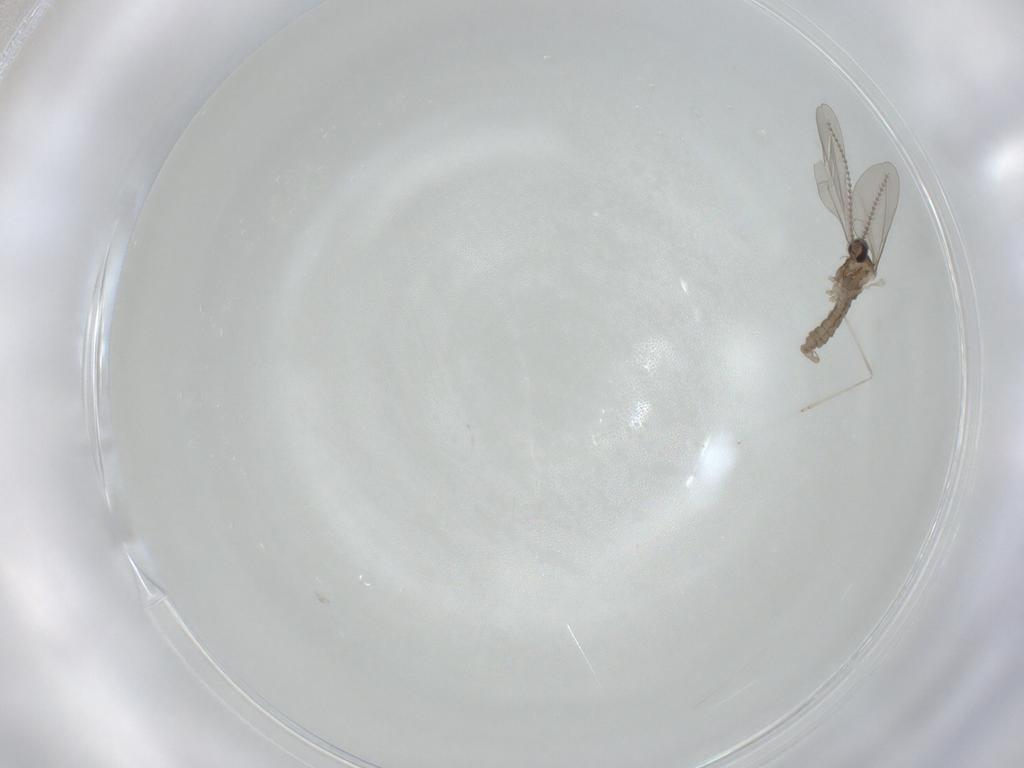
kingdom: Animalia
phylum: Arthropoda
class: Insecta
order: Diptera
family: Cecidomyiidae
